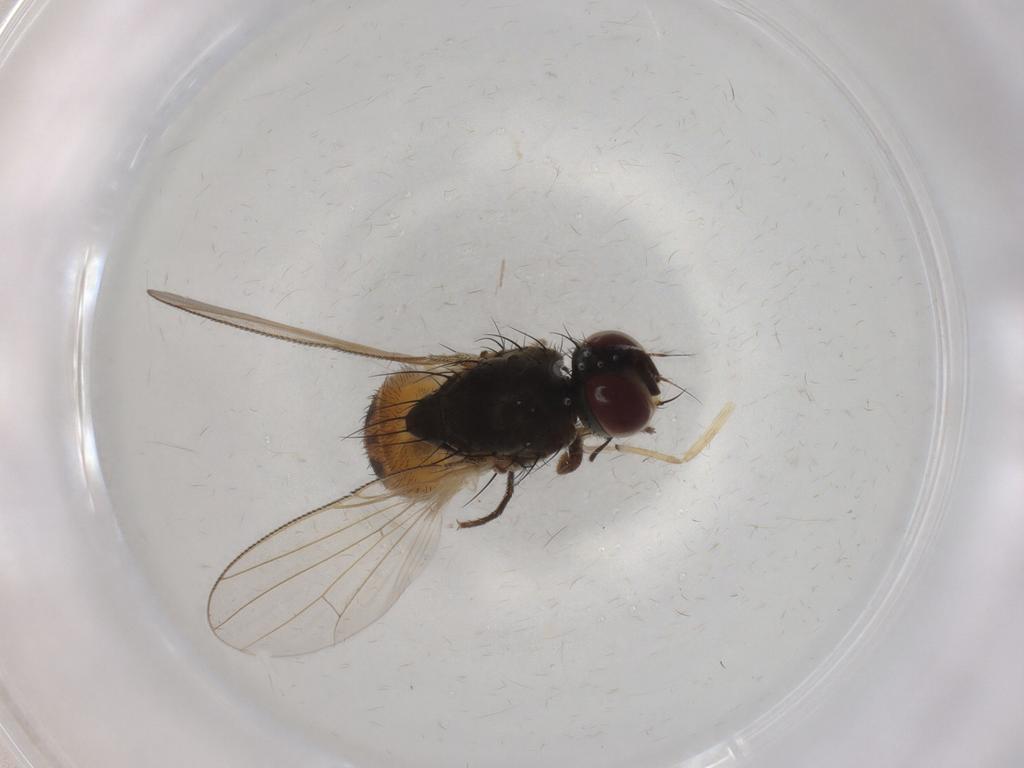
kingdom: Animalia
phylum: Arthropoda
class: Insecta
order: Diptera
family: Muscidae
